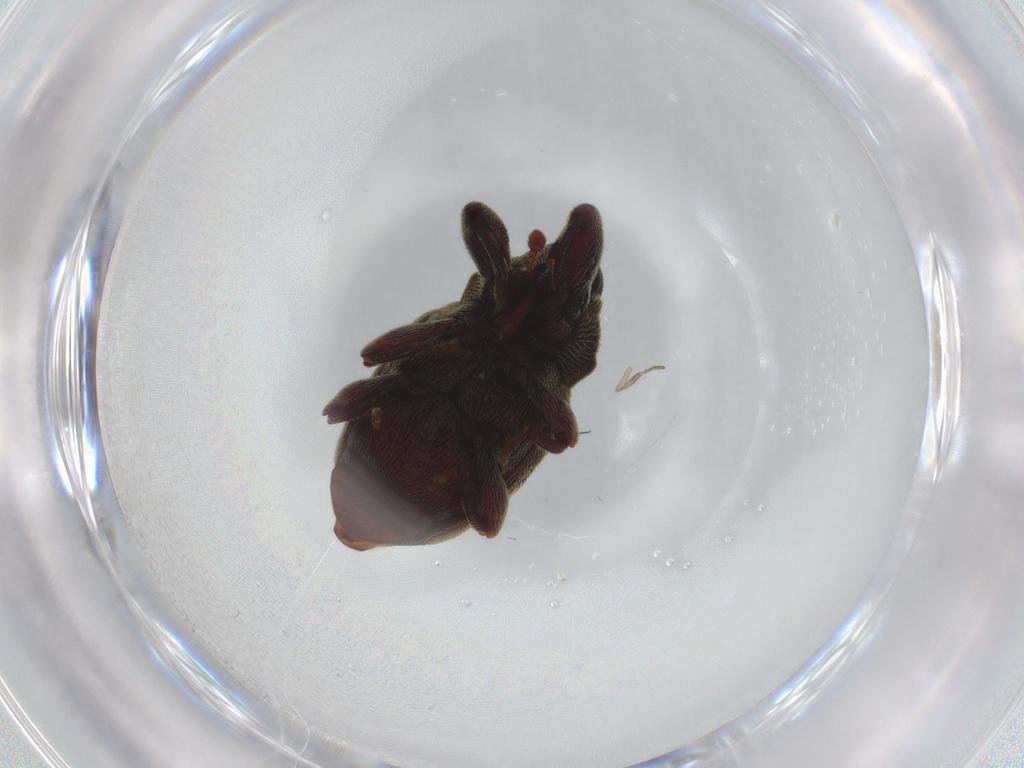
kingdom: Animalia
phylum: Arthropoda
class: Insecta
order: Coleoptera
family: Curculionidae
